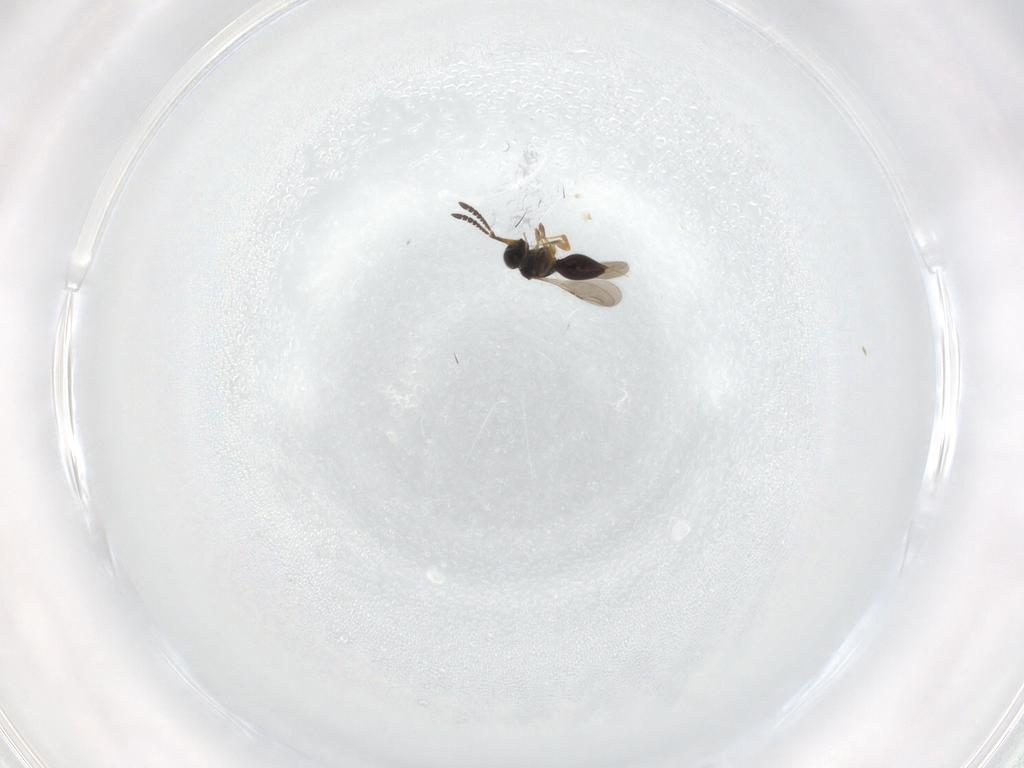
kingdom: Animalia
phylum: Arthropoda
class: Insecta
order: Hymenoptera
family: Mymaridae
